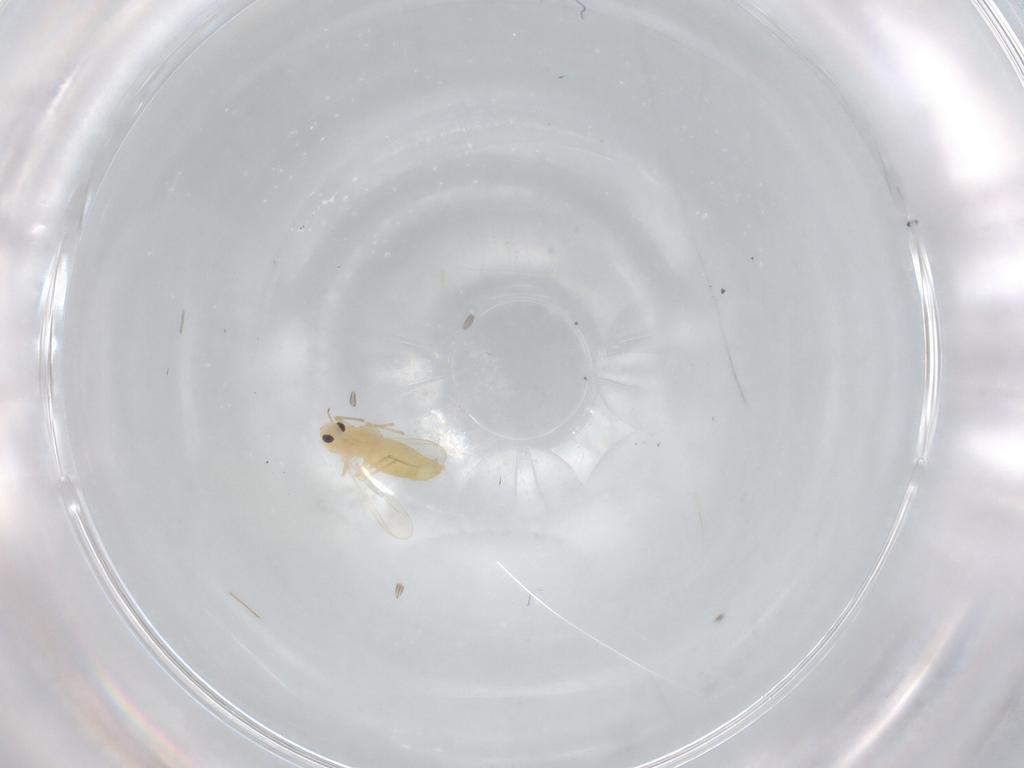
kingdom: Animalia
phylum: Arthropoda
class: Insecta
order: Diptera
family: Chironomidae
